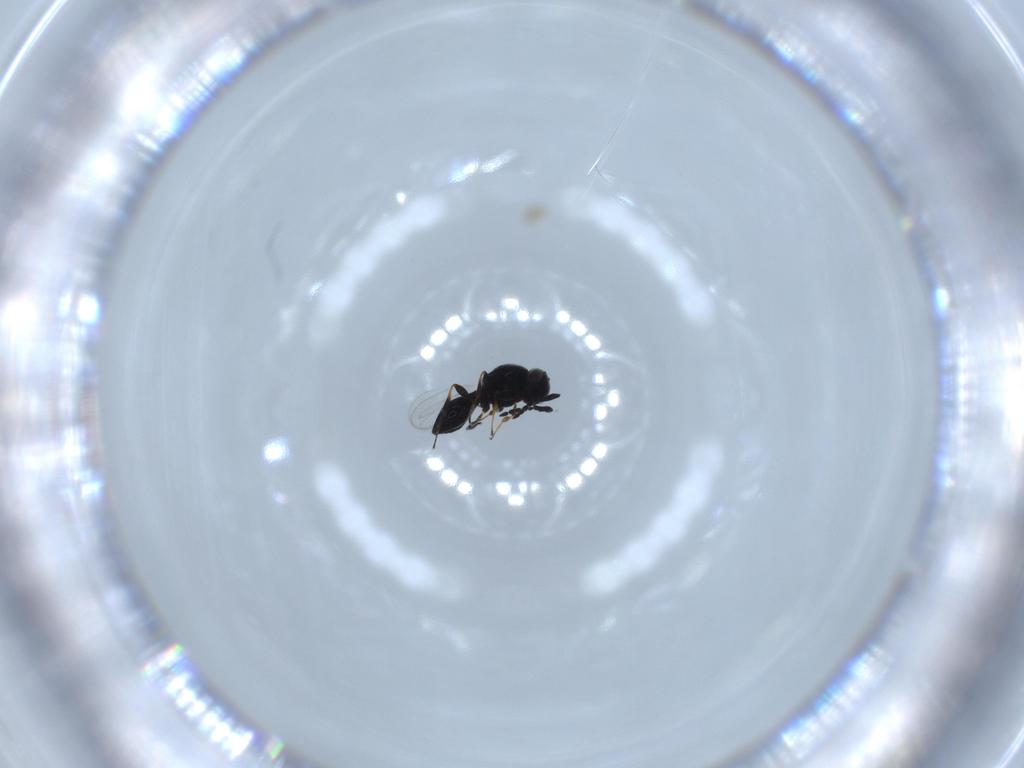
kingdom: Animalia
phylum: Arthropoda
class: Insecta
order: Hymenoptera
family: Platygastridae
